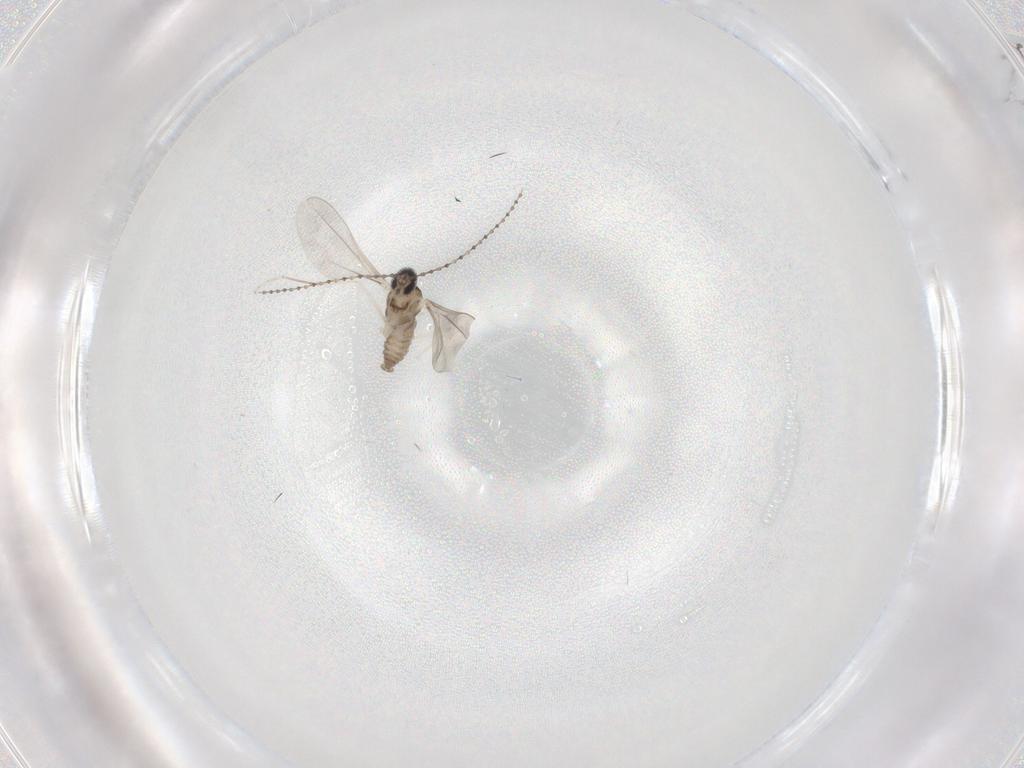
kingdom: Animalia
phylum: Arthropoda
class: Insecta
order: Diptera
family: Cecidomyiidae
